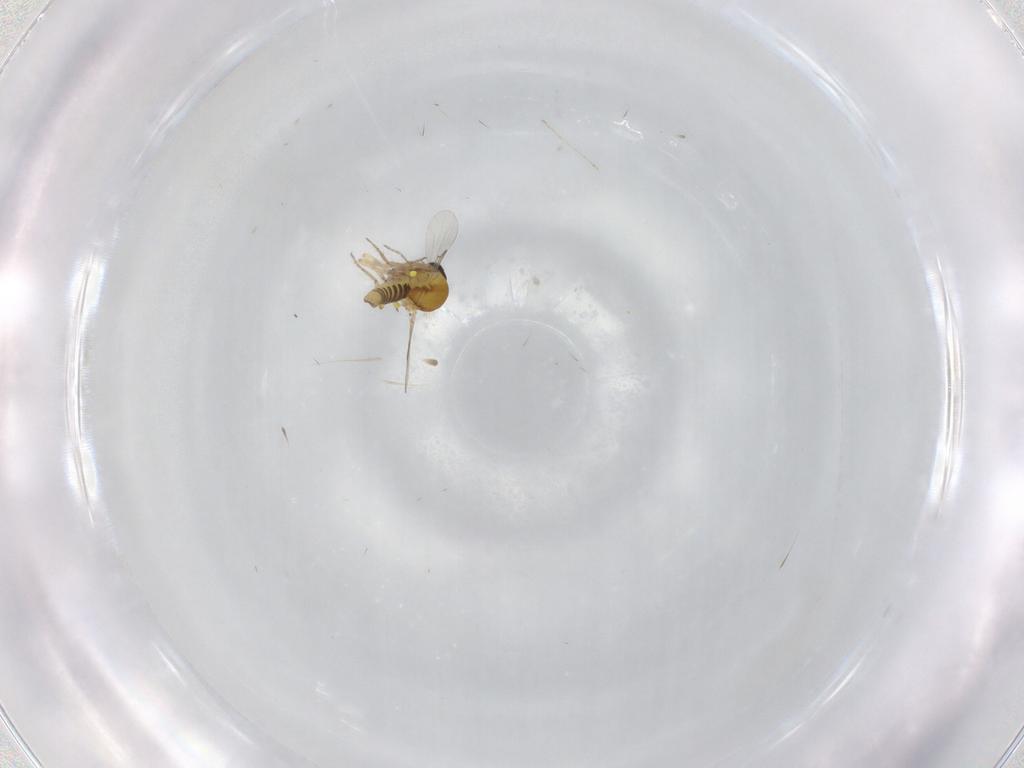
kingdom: Animalia
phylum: Arthropoda
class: Insecta
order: Diptera
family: Ceratopogonidae
